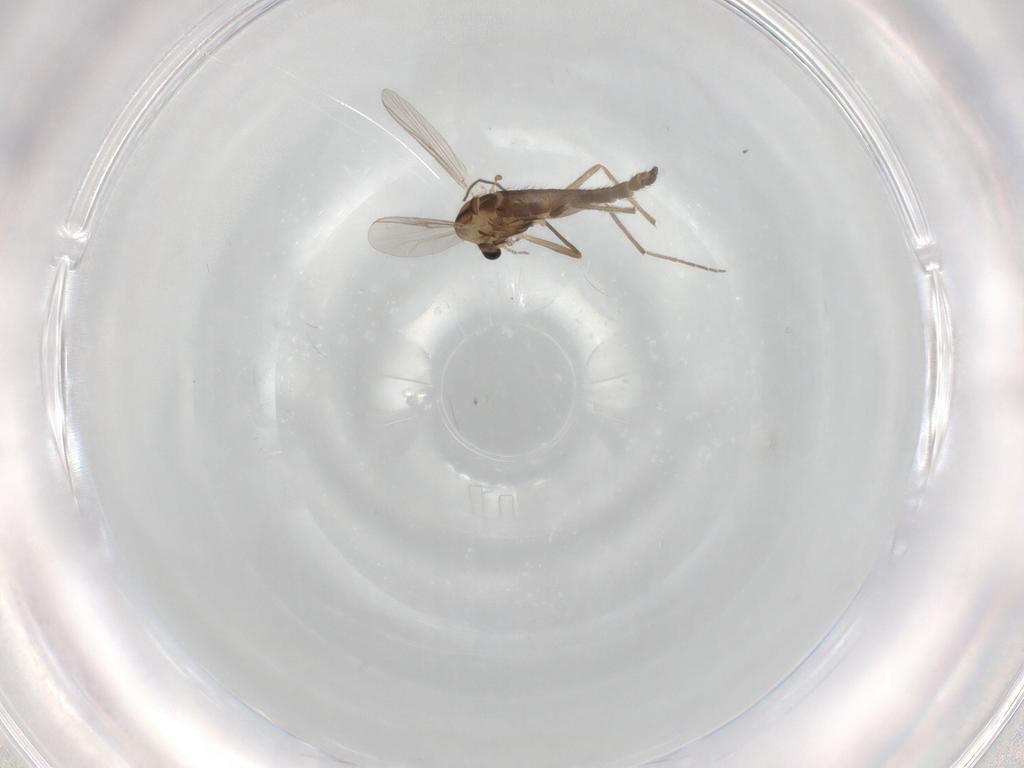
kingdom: Animalia
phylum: Arthropoda
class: Insecta
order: Diptera
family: Chironomidae
